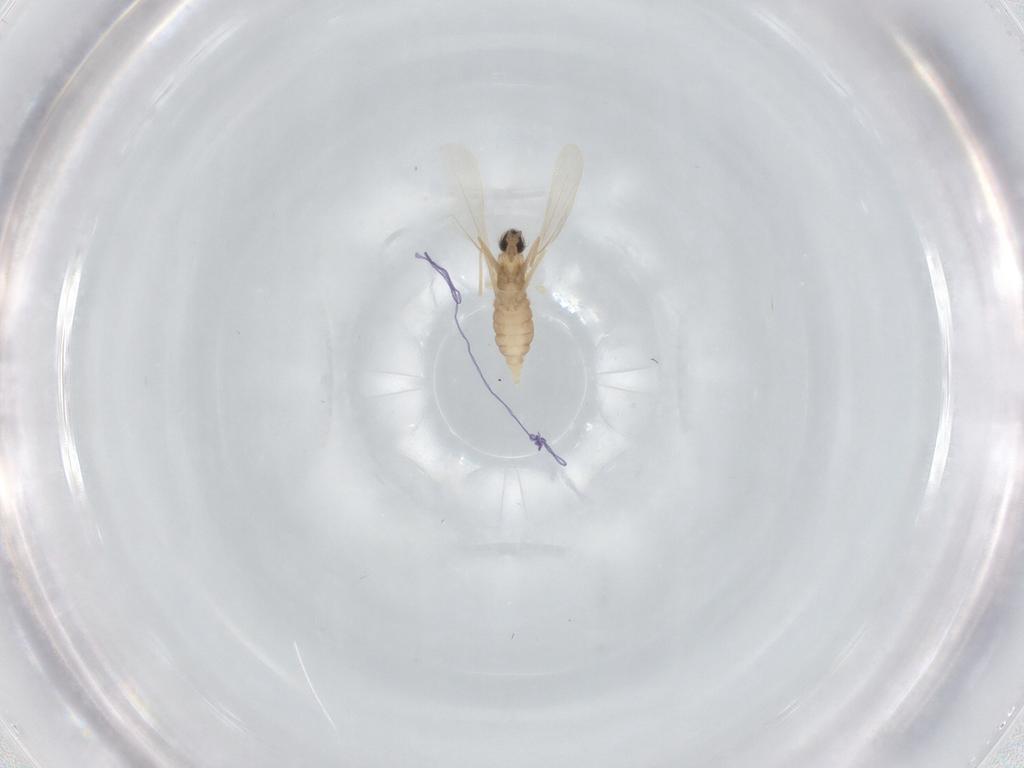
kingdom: Animalia
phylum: Arthropoda
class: Insecta
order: Diptera
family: Cecidomyiidae
